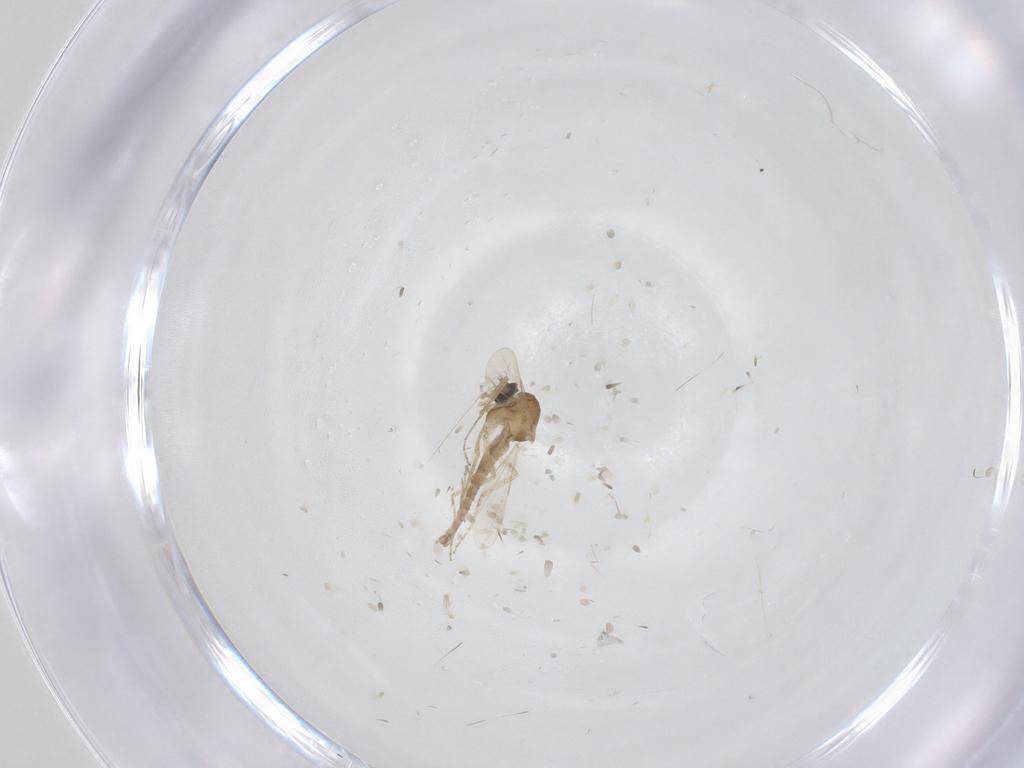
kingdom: Animalia
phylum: Arthropoda
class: Insecta
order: Diptera
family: Ceratopogonidae
